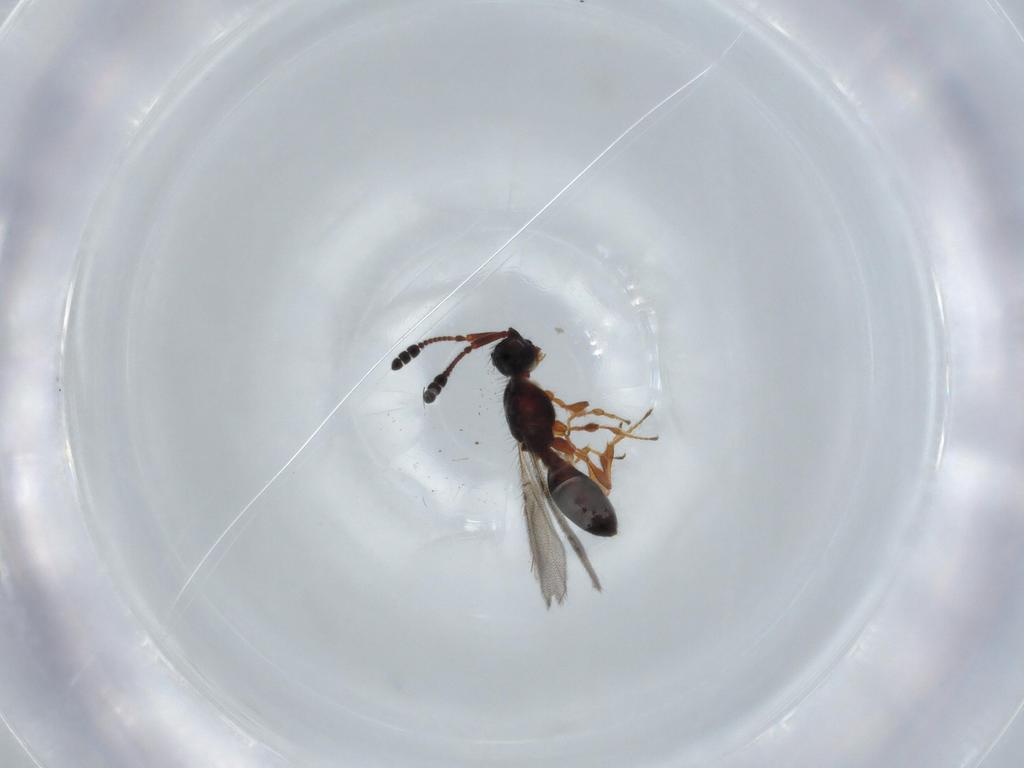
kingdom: Animalia
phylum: Arthropoda
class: Insecta
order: Hymenoptera
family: Diapriidae
